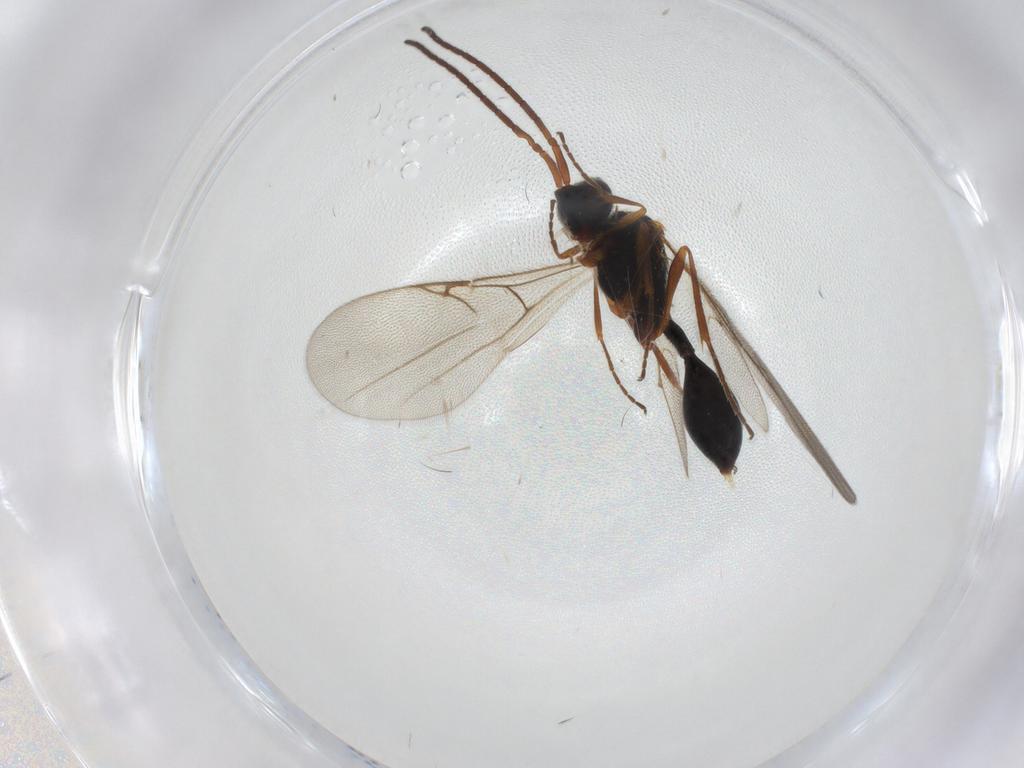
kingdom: Animalia
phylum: Arthropoda
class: Insecta
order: Hymenoptera
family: Diapriidae
